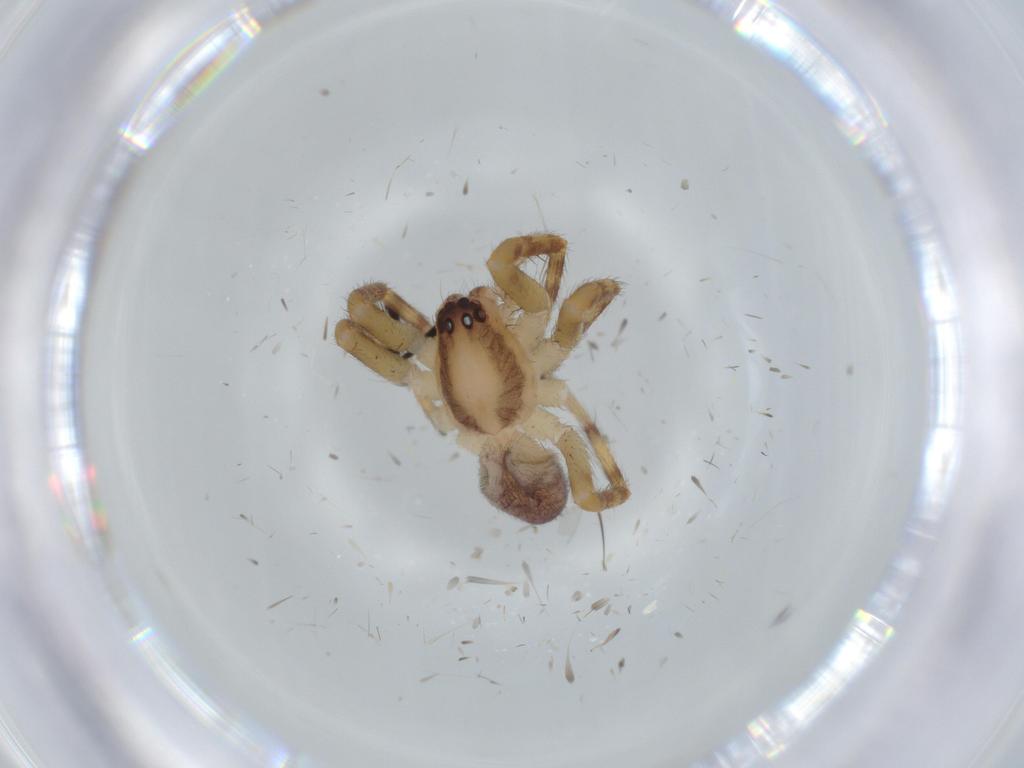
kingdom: Animalia
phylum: Arthropoda
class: Arachnida
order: Araneae
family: Corinnidae
